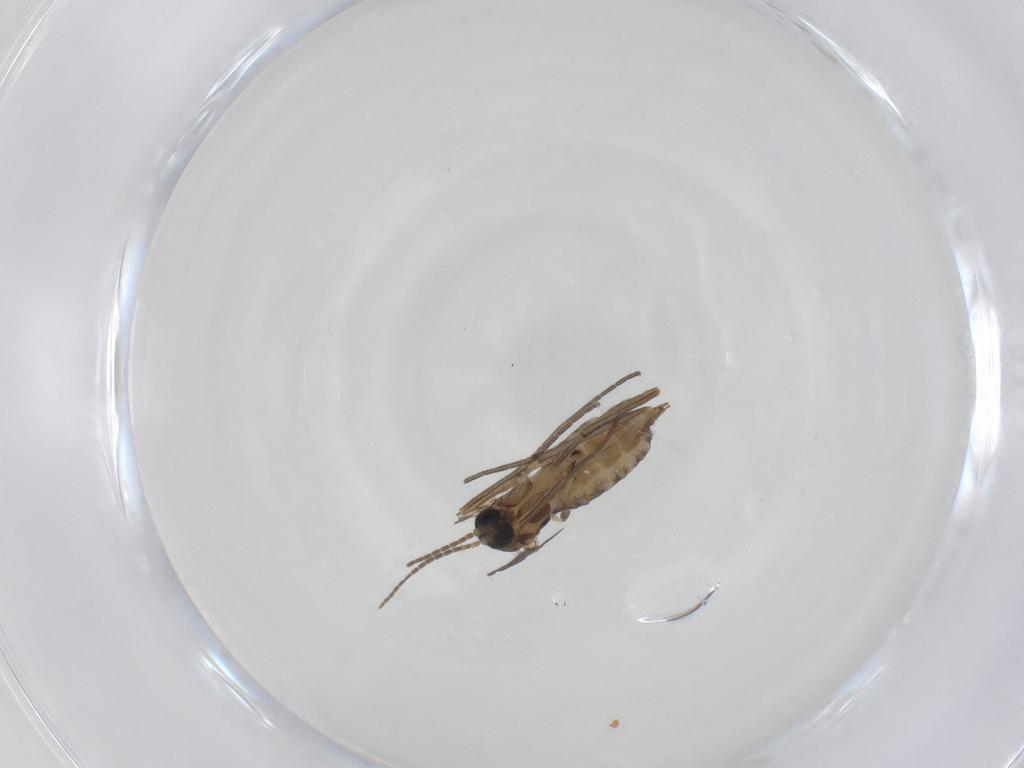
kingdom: Animalia
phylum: Arthropoda
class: Insecta
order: Diptera
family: Sciaridae
